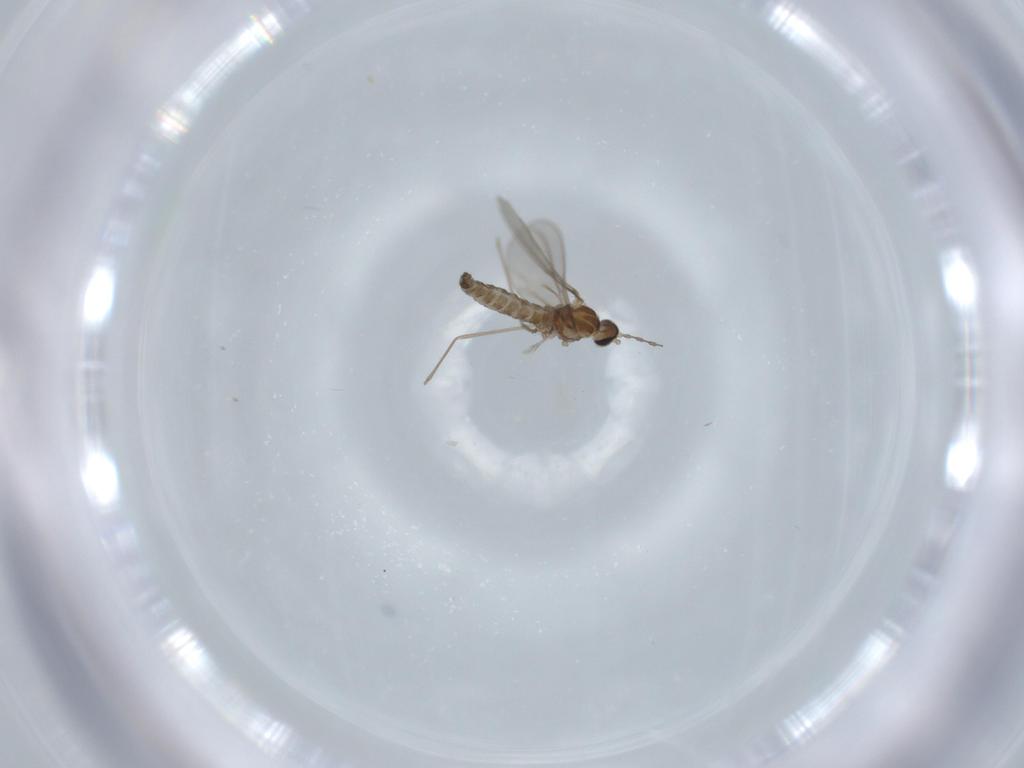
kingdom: Animalia
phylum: Arthropoda
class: Insecta
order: Diptera
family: Cecidomyiidae
